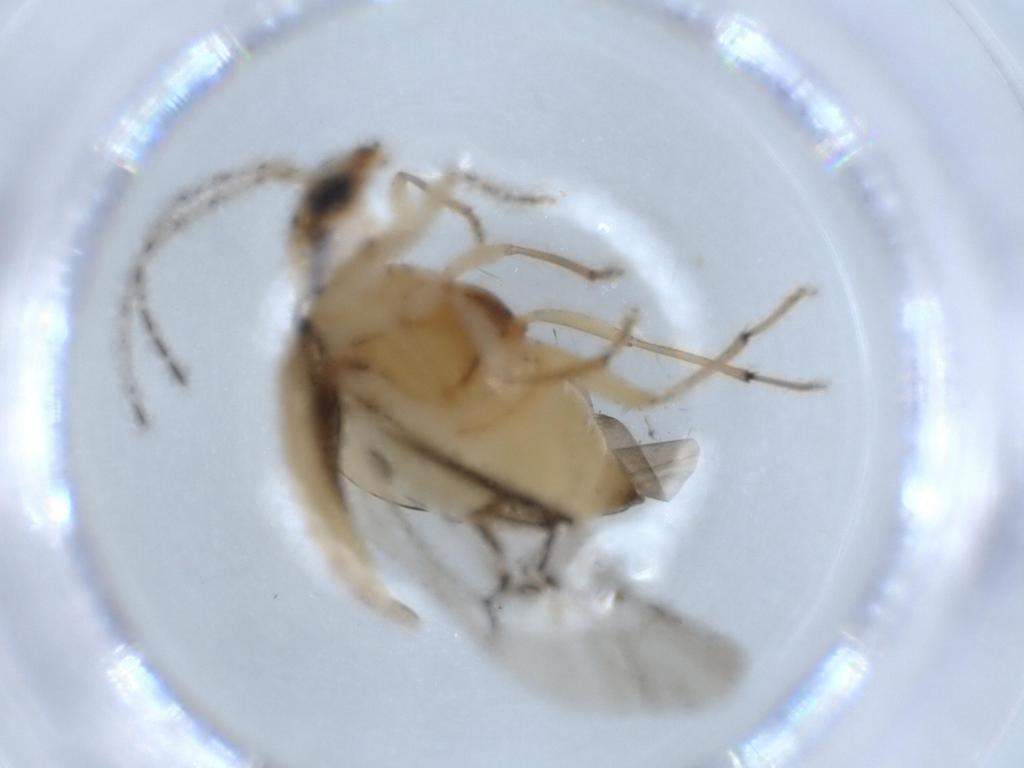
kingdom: Animalia
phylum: Arthropoda
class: Insecta
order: Coleoptera
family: Chrysomelidae
